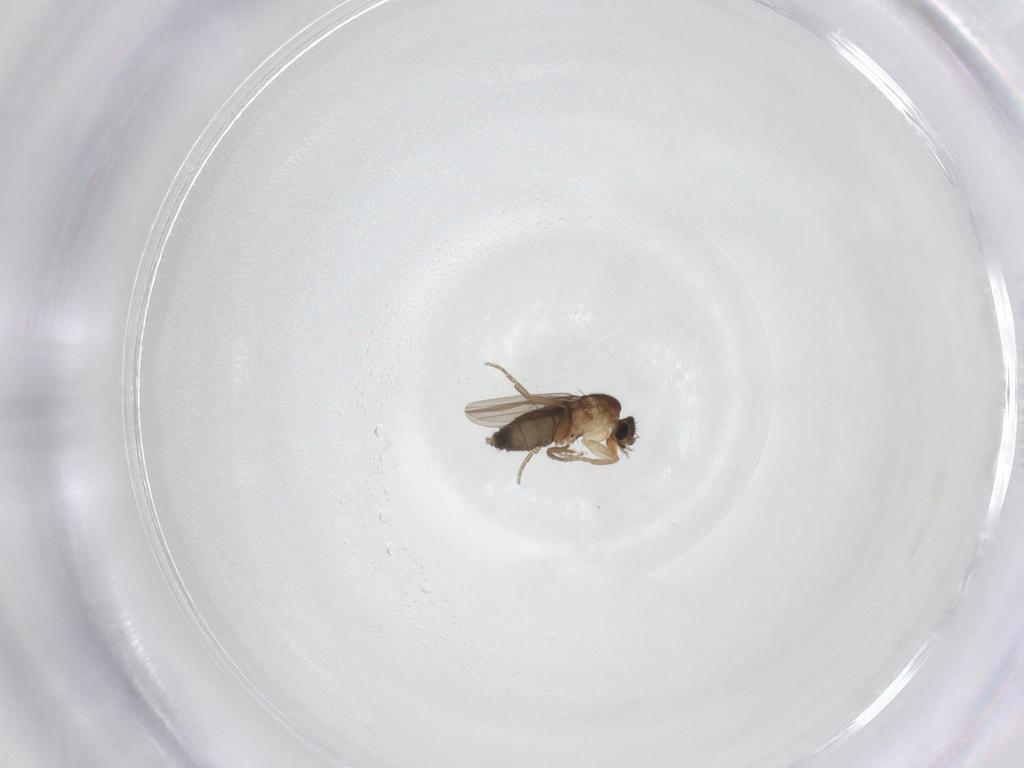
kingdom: Animalia
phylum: Arthropoda
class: Insecta
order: Diptera
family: Phoridae
